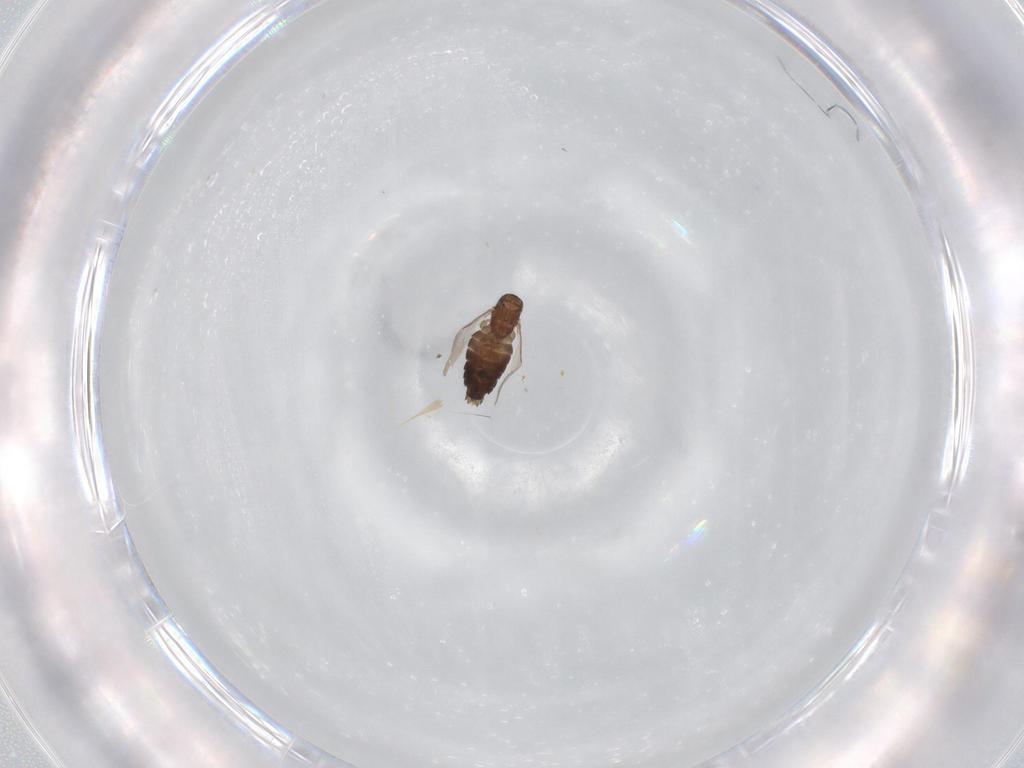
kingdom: Animalia
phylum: Arthropoda
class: Insecta
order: Diptera
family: Scatopsidae
